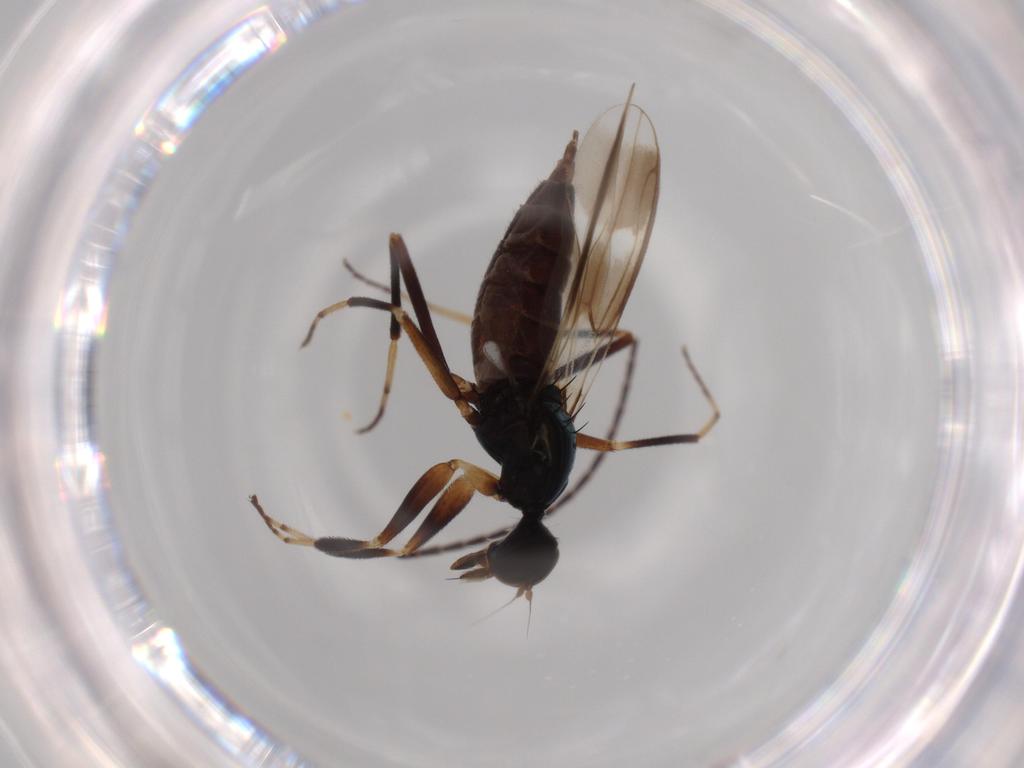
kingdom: Animalia
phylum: Arthropoda
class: Insecta
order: Diptera
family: Hybotidae
